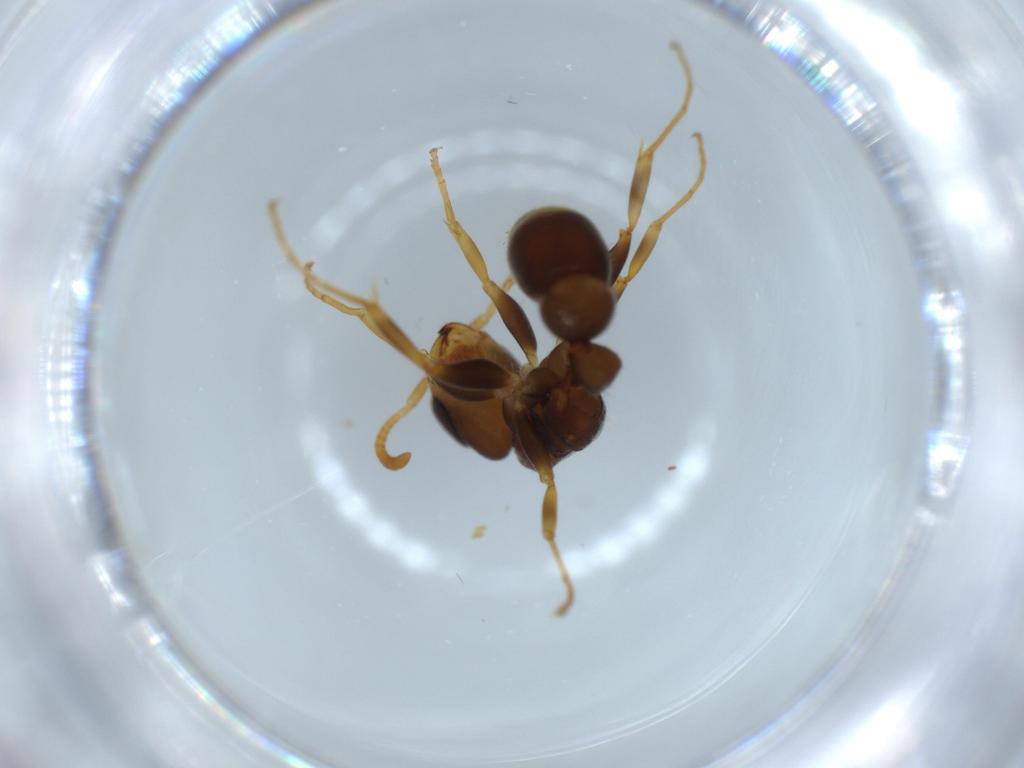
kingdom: Animalia
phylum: Arthropoda
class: Insecta
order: Hymenoptera
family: Formicidae
